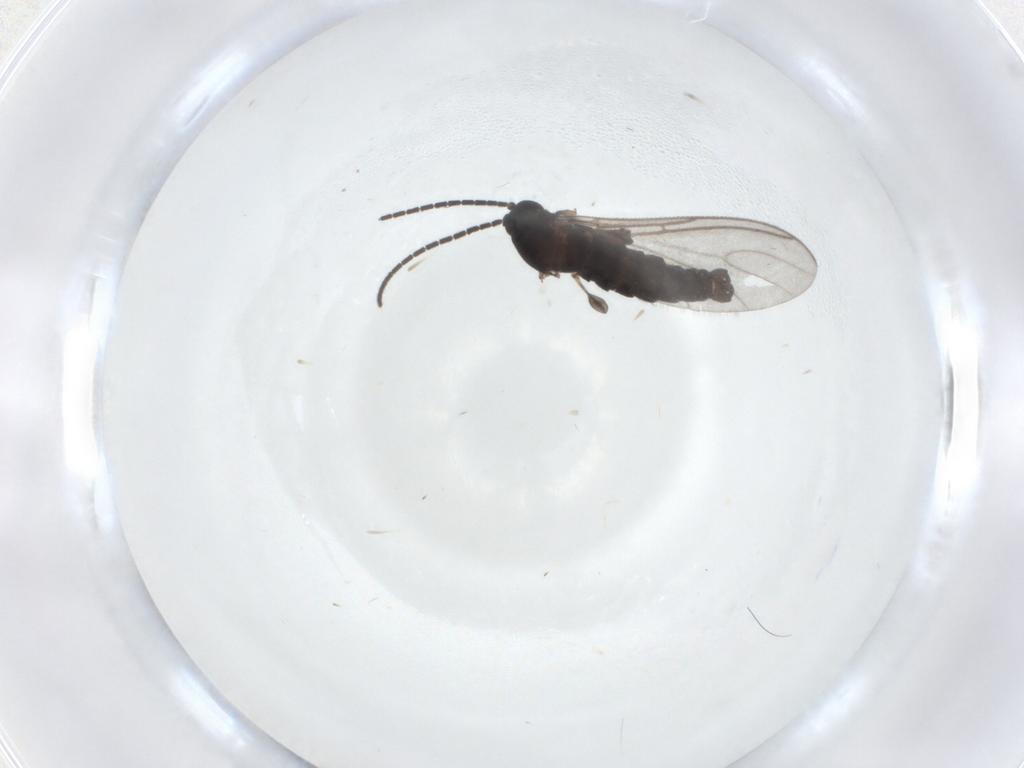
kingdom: Animalia
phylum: Arthropoda
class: Insecta
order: Diptera
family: Sciaridae
